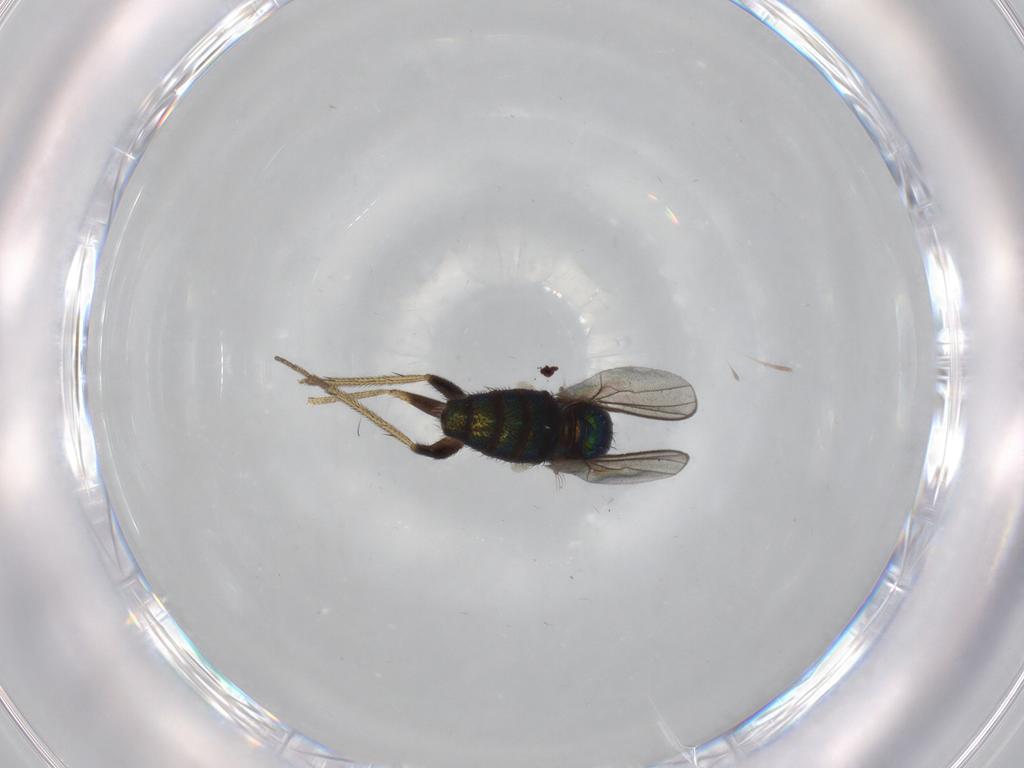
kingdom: Animalia
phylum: Arthropoda
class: Insecta
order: Diptera
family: Dolichopodidae
